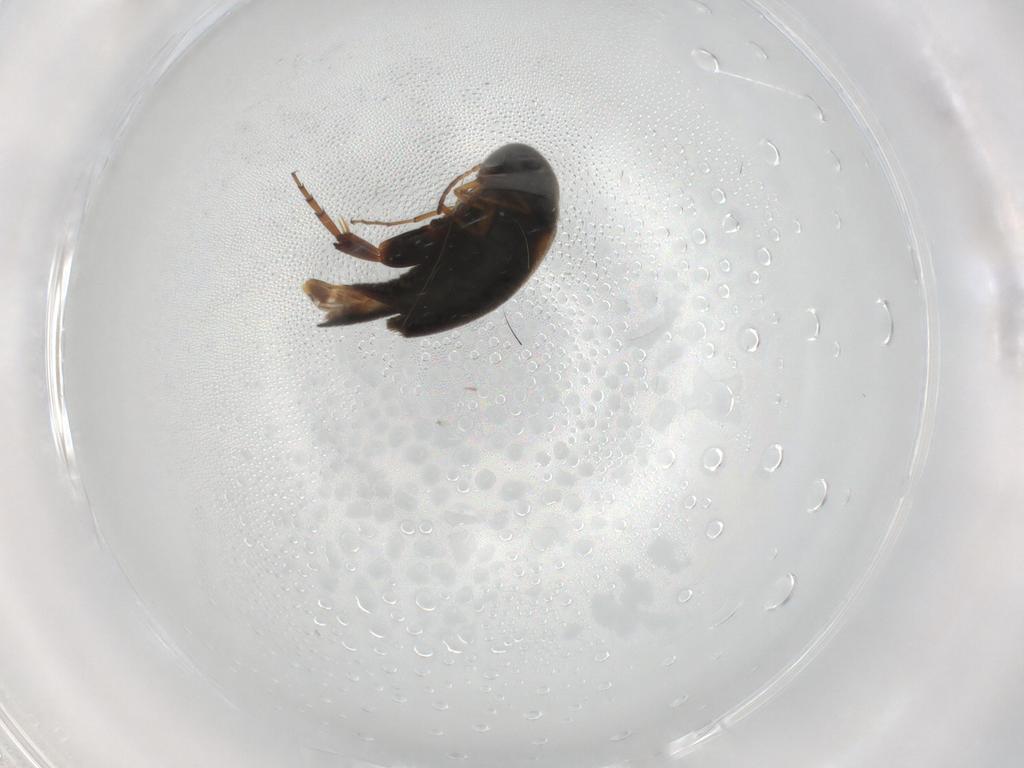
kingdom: Animalia
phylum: Arthropoda
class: Insecta
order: Coleoptera
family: Mordellidae
